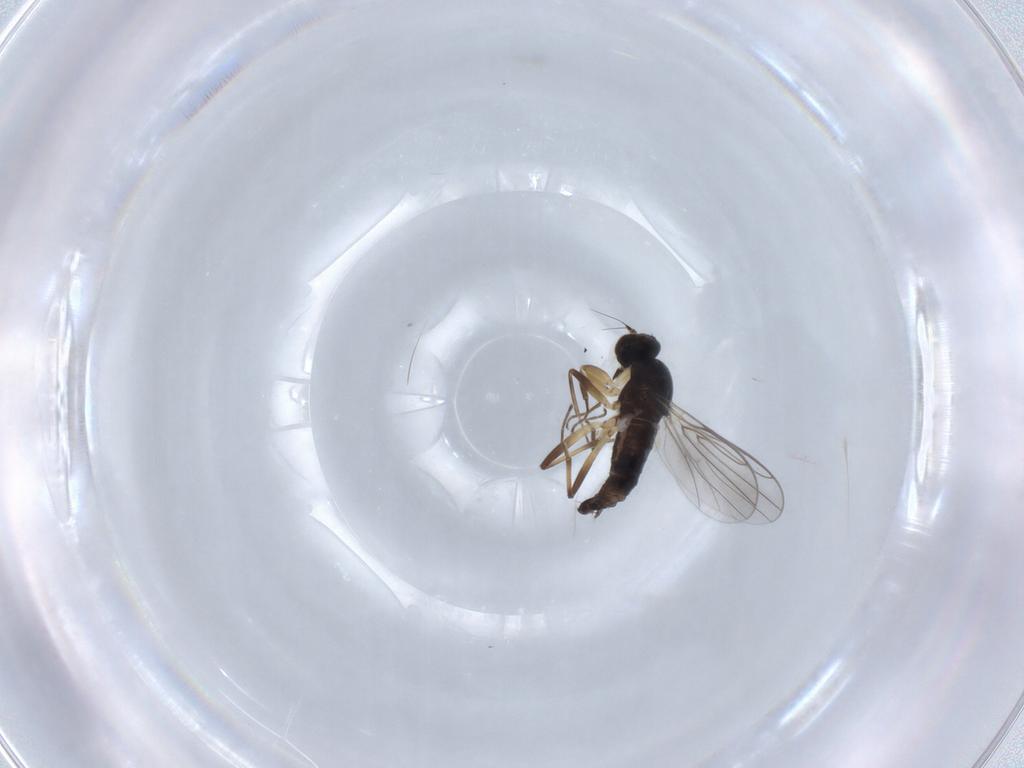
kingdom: Animalia
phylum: Arthropoda
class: Insecta
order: Diptera
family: Hybotidae
